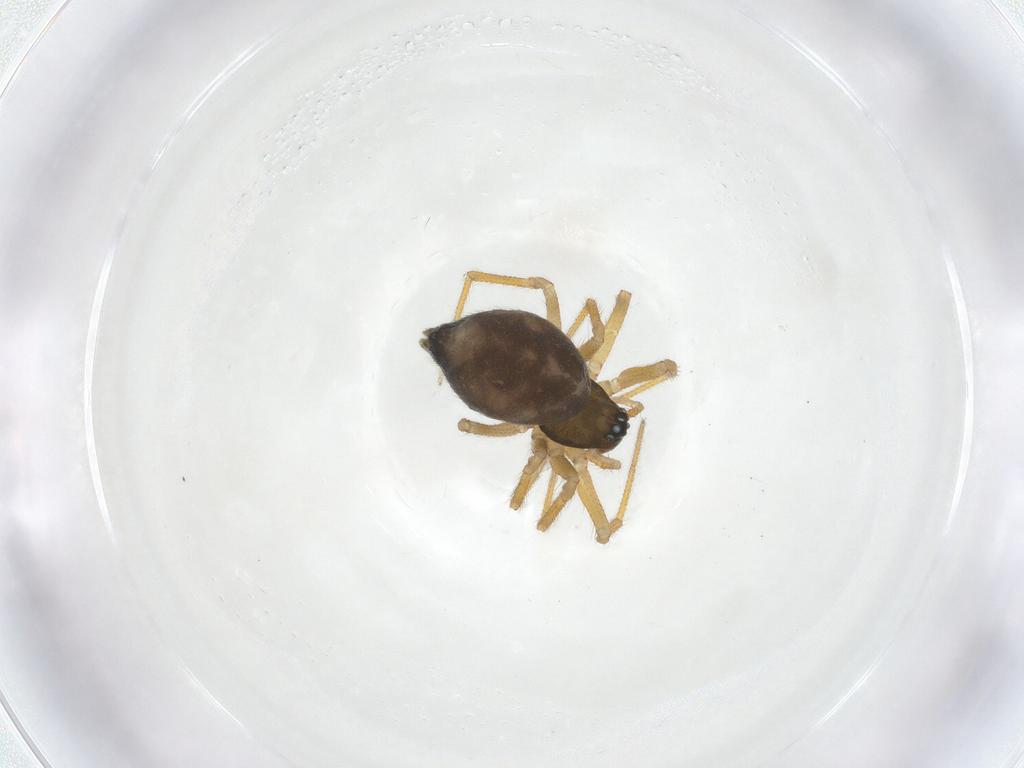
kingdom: Animalia
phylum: Arthropoda
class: Arachnida
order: Araneae
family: Linyphiidae
